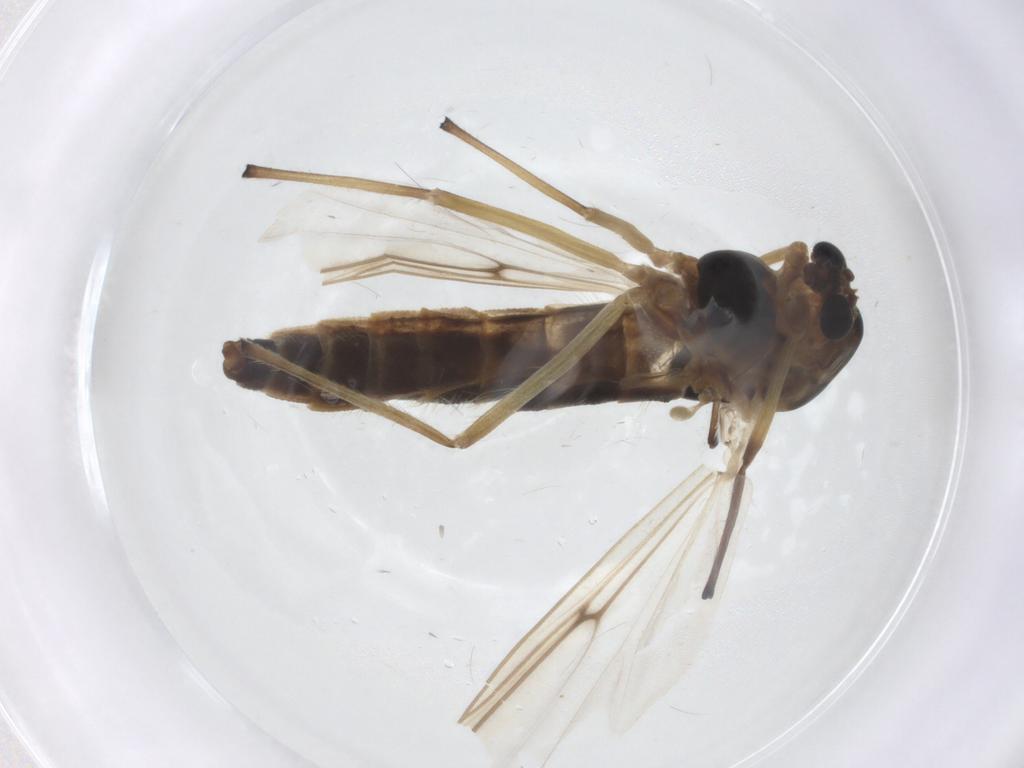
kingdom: Animalia
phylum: Arthropoda
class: Insecta
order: Diptera
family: Chironomidae
